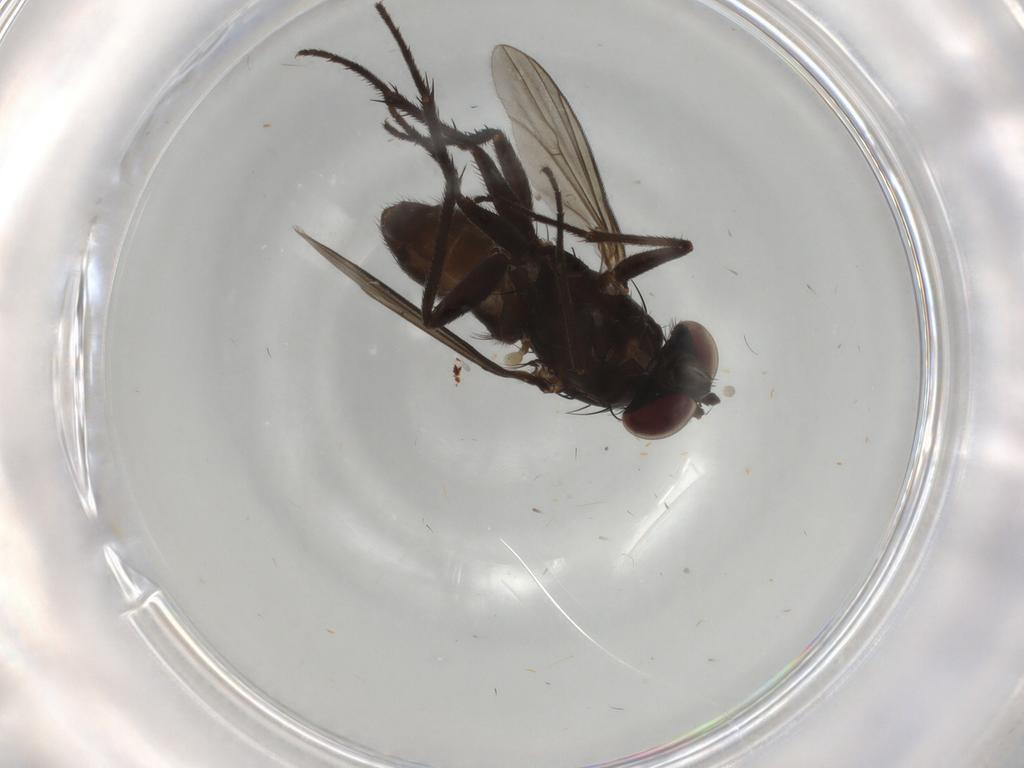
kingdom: Animalia
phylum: Arthropoda
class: Insecta
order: Diptera
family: Dolichopodidae
